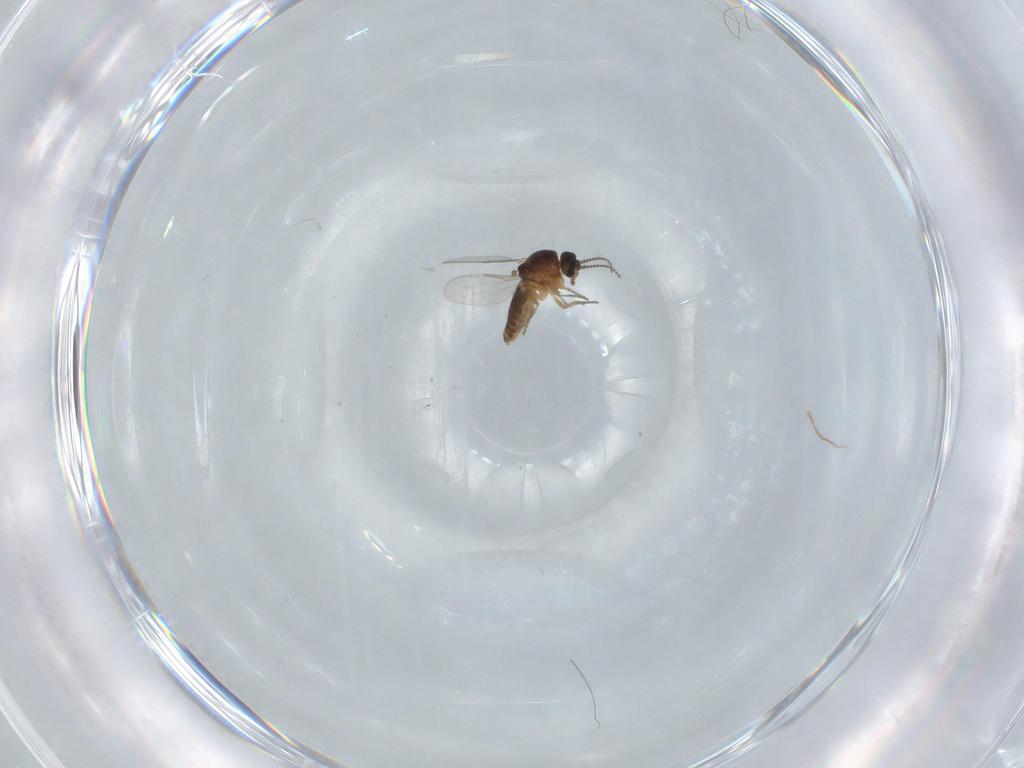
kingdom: Animalia
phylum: Arthropoda
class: Insecta
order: Diptera
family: Ceratopogonidae
